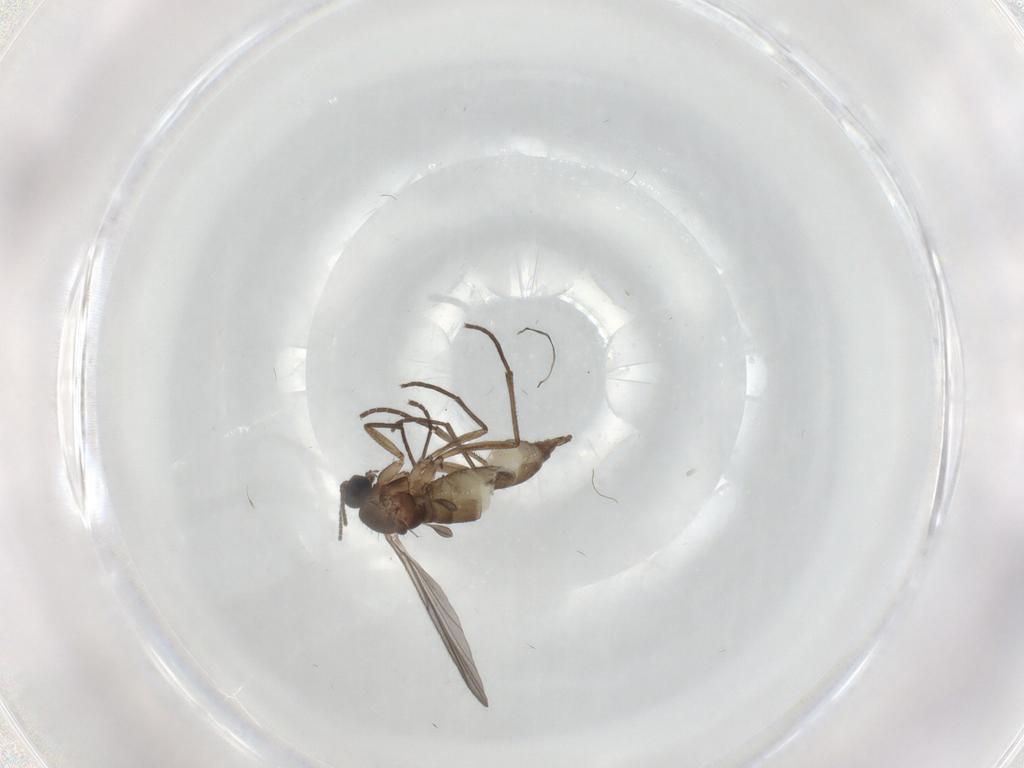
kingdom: Animalia
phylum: Arthropoda
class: Insecta
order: Diptera
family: Chironomidae
